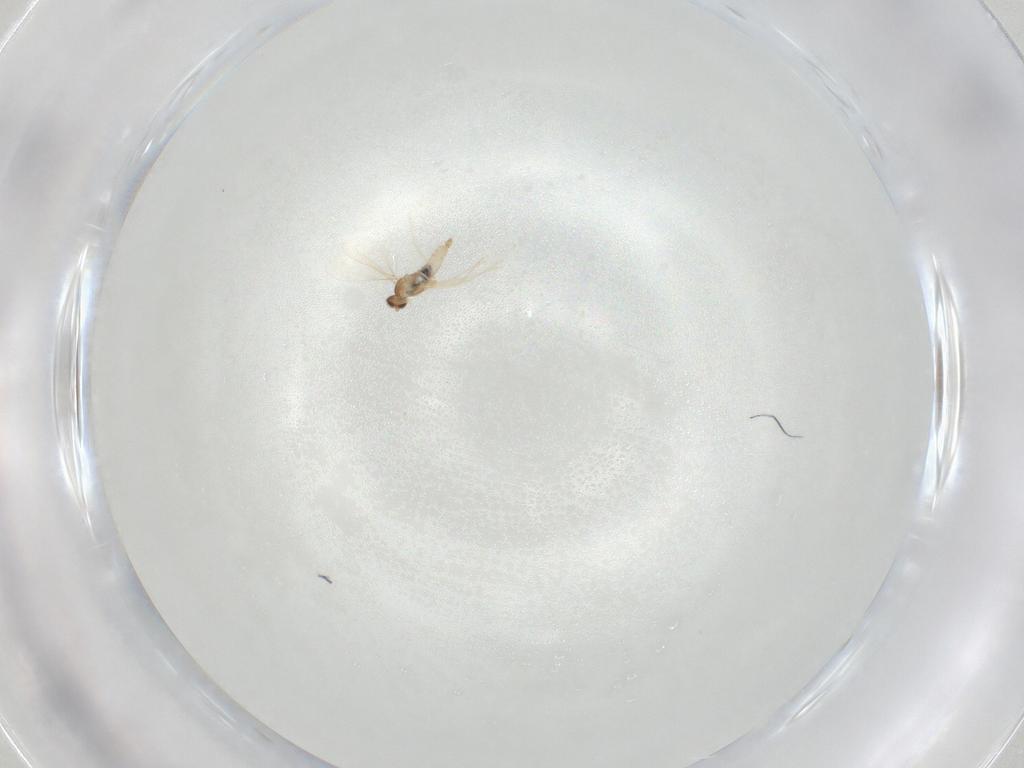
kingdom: Animalia
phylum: Arthropoda
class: Insecta
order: Diptera
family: Cecidomyiidae
